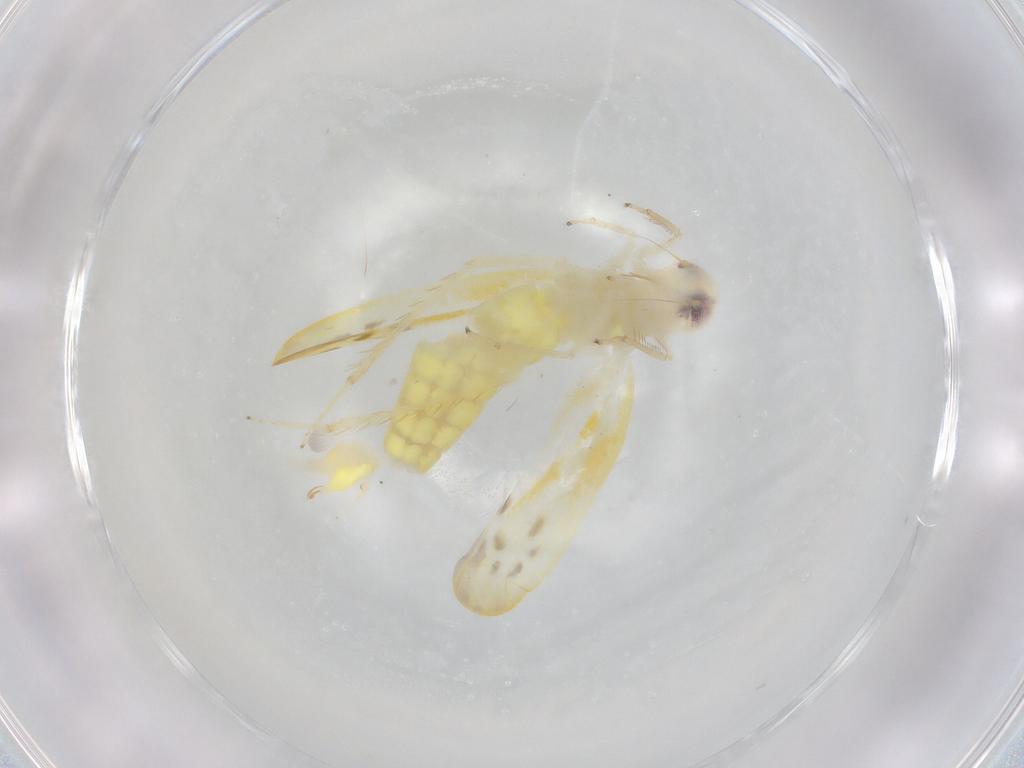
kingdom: Animalia
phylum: Arthropoda
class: Insecta
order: Hemiptera
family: Cicadellidae
